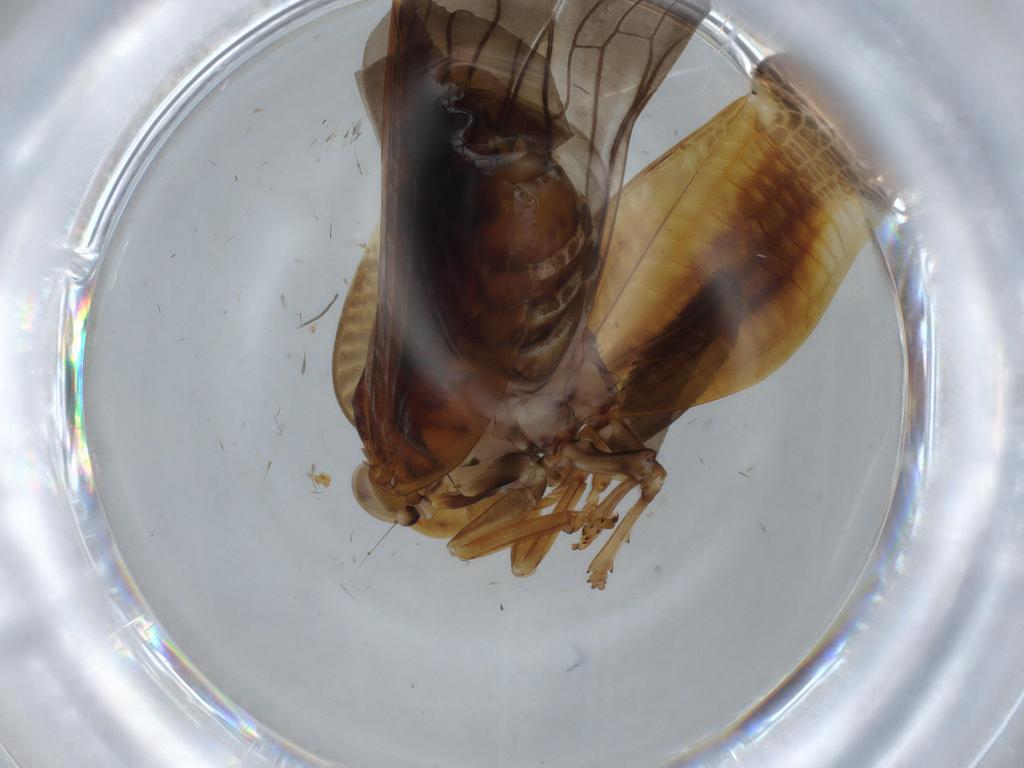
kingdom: Animalia
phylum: Arthropoda
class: Insecta
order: Hemiptera
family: Nogodinidae
